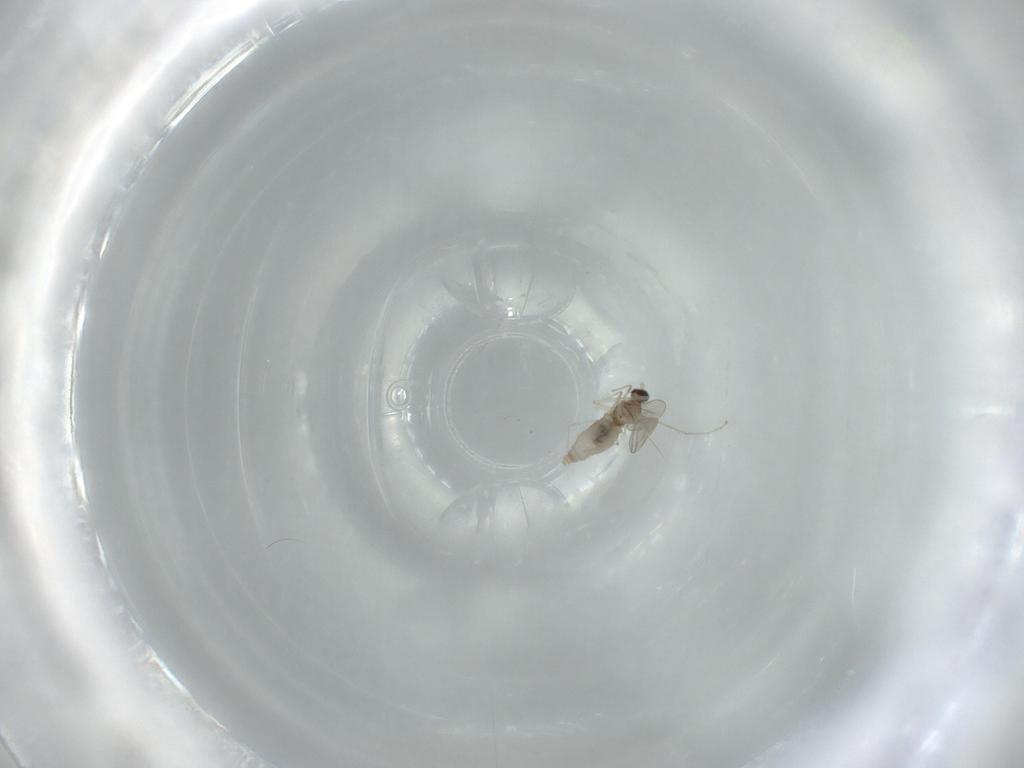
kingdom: Animalia
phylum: Arthropoda
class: Insecta
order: Diptera
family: Cecidomyiidae
